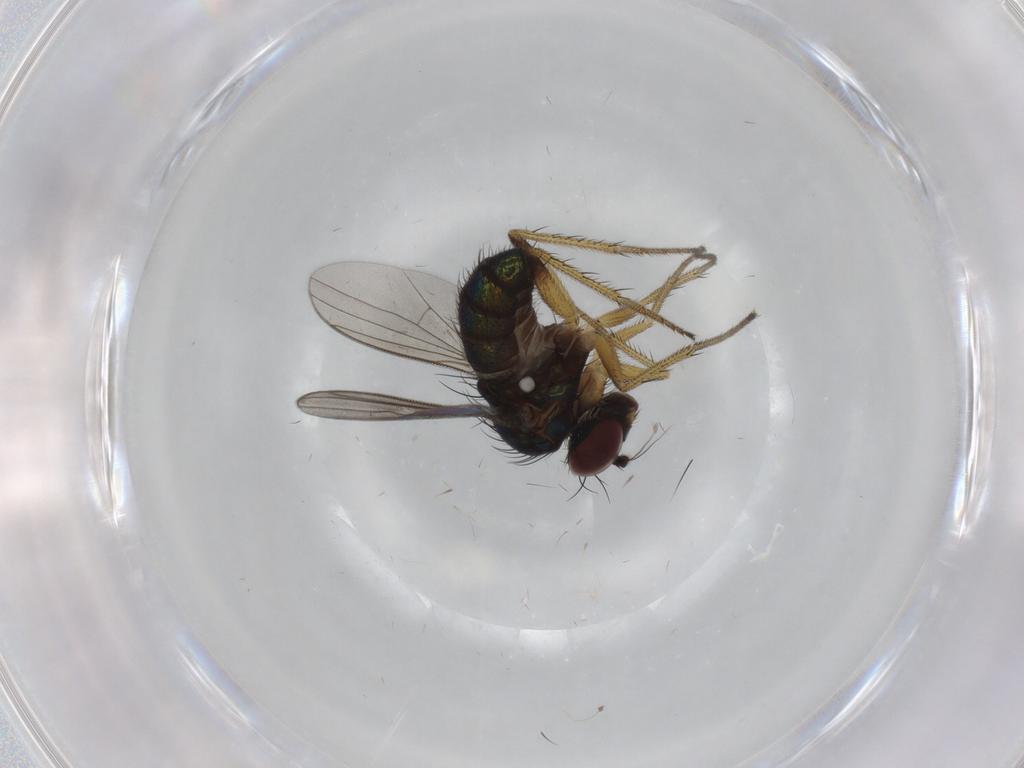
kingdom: Animalia
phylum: Arthropoda
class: Insecta
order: Diptera
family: Dolichopodidae
